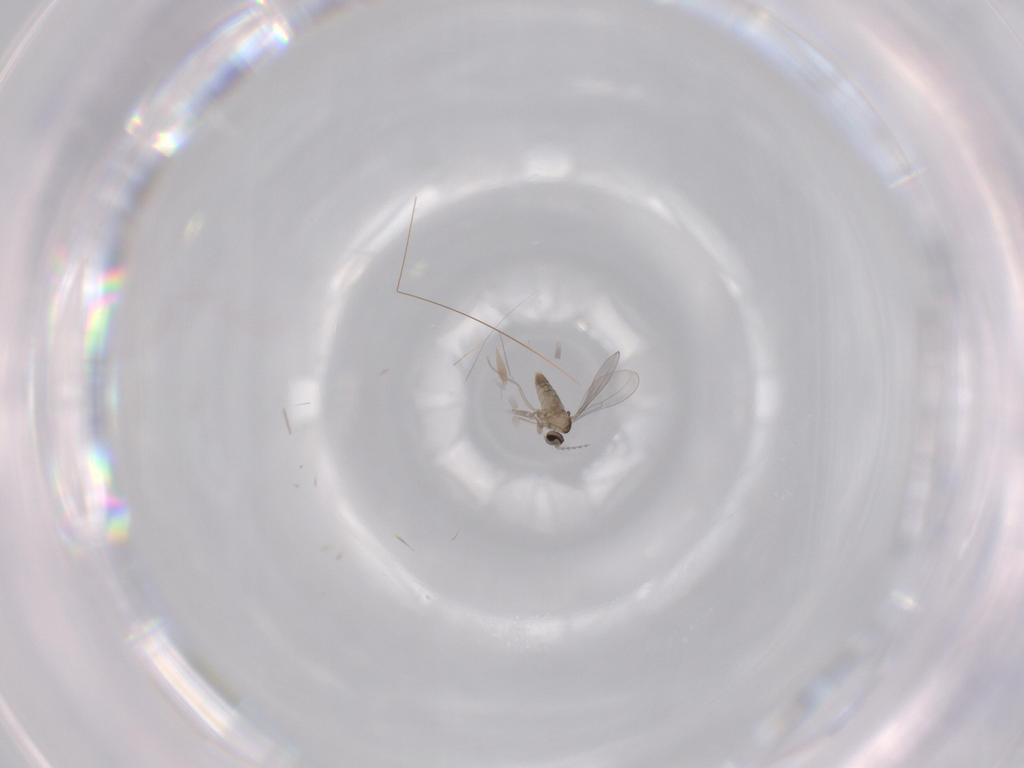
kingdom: Animalia
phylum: Arthropoda
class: Insecta
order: Diptera
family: Cecidomyiidae
